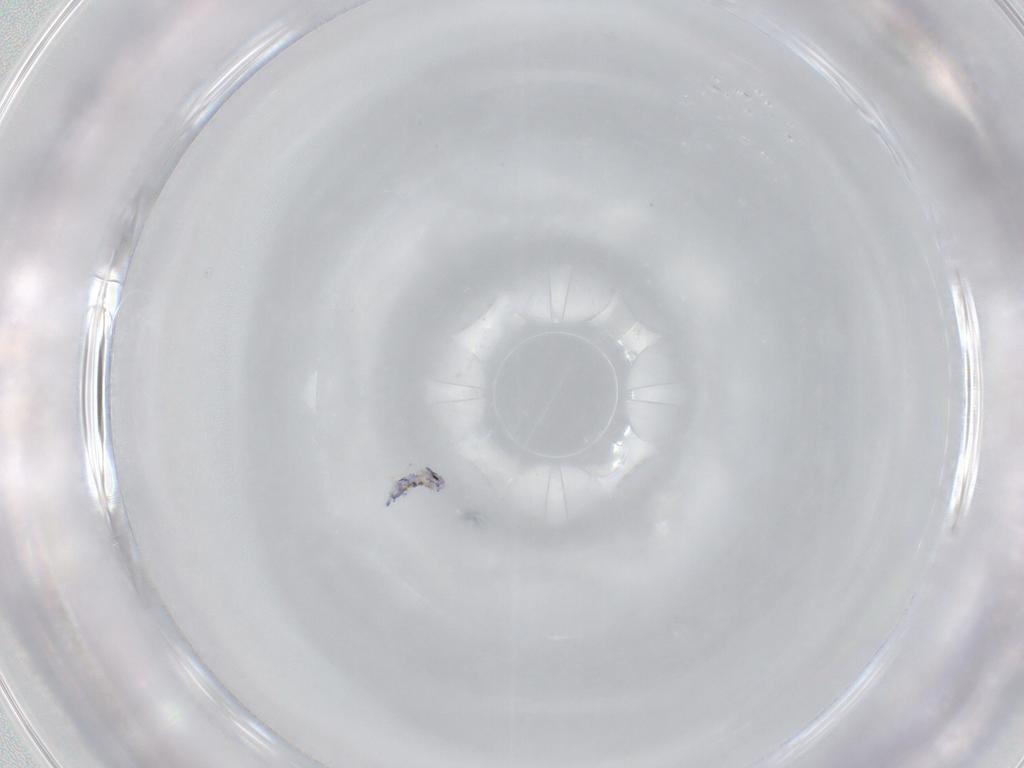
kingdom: Animalia
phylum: Arthropoda
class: Collembola
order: Entomobryomorpha
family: Entomobryidae
